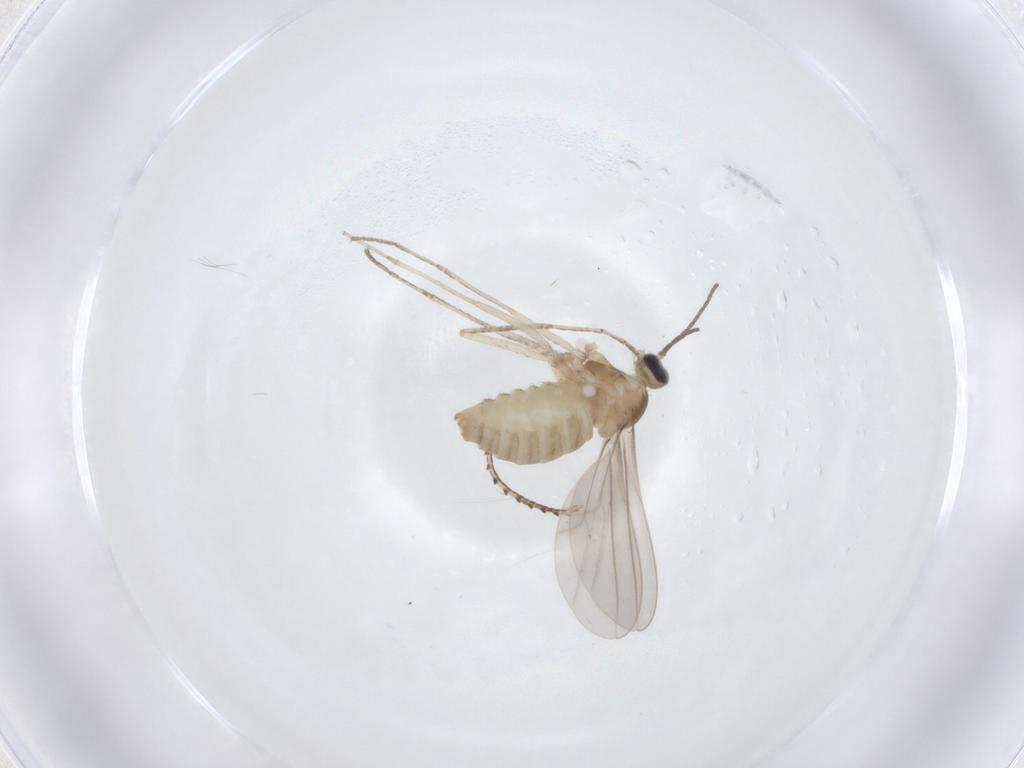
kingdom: Animalia
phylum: Arthropoda
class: Insecta
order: Diptera
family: Cecidomyiidae
